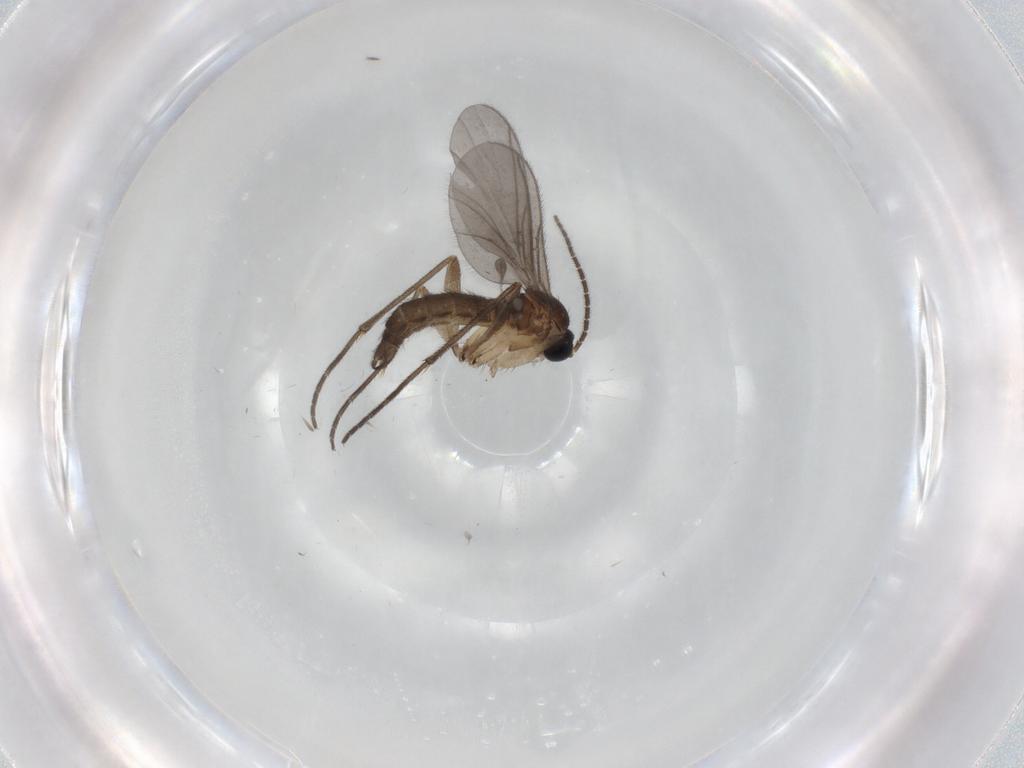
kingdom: Animalia
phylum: Arthropoda
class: Insecta
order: Diptera
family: Sciaridae
